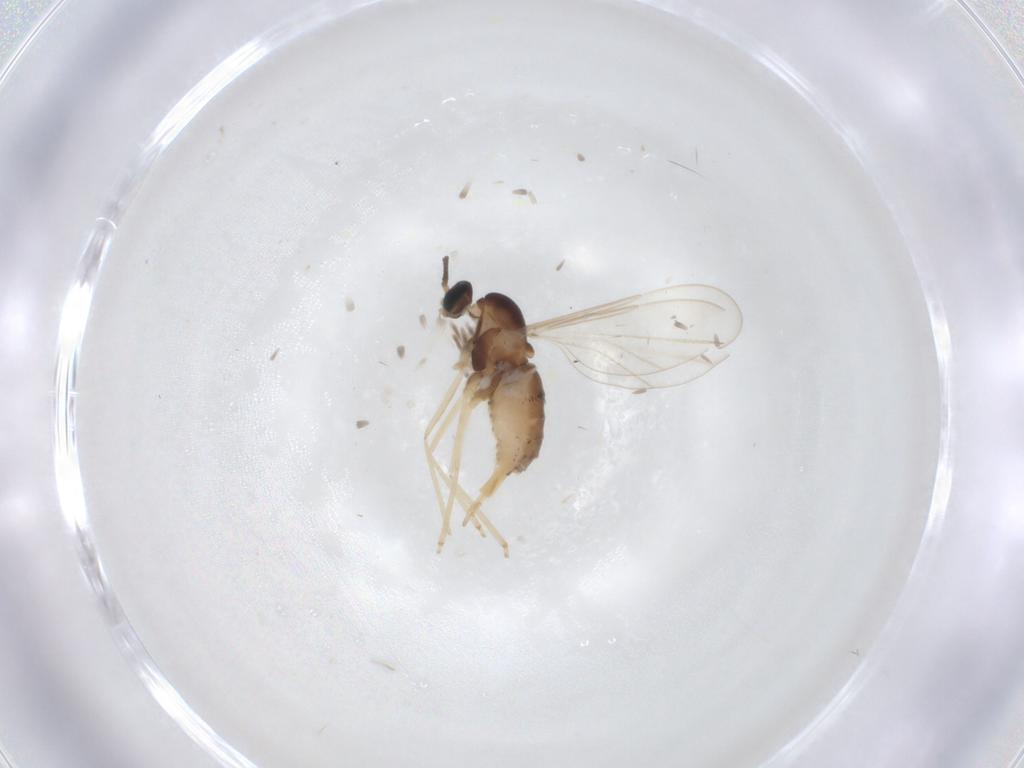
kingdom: Animalia
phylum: Arthropoda
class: Insecta
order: Diptera
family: Cecidomyiidae
